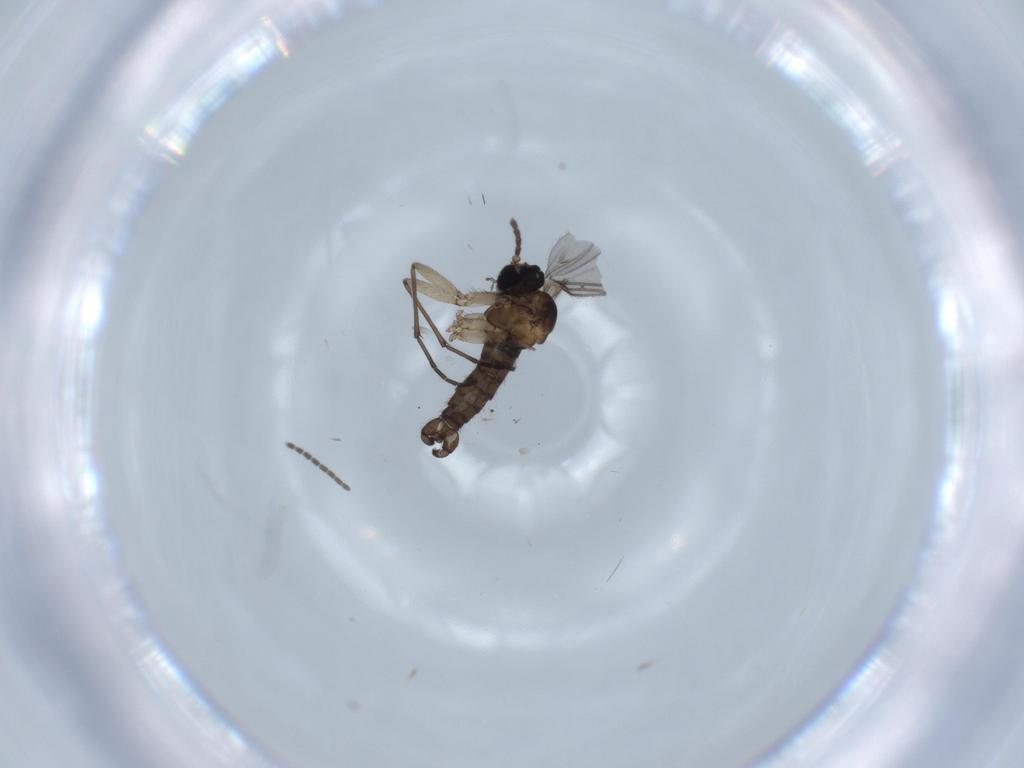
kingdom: Animalia
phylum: Arthropoda
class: Insecta
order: Diptera
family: Sciaridae
